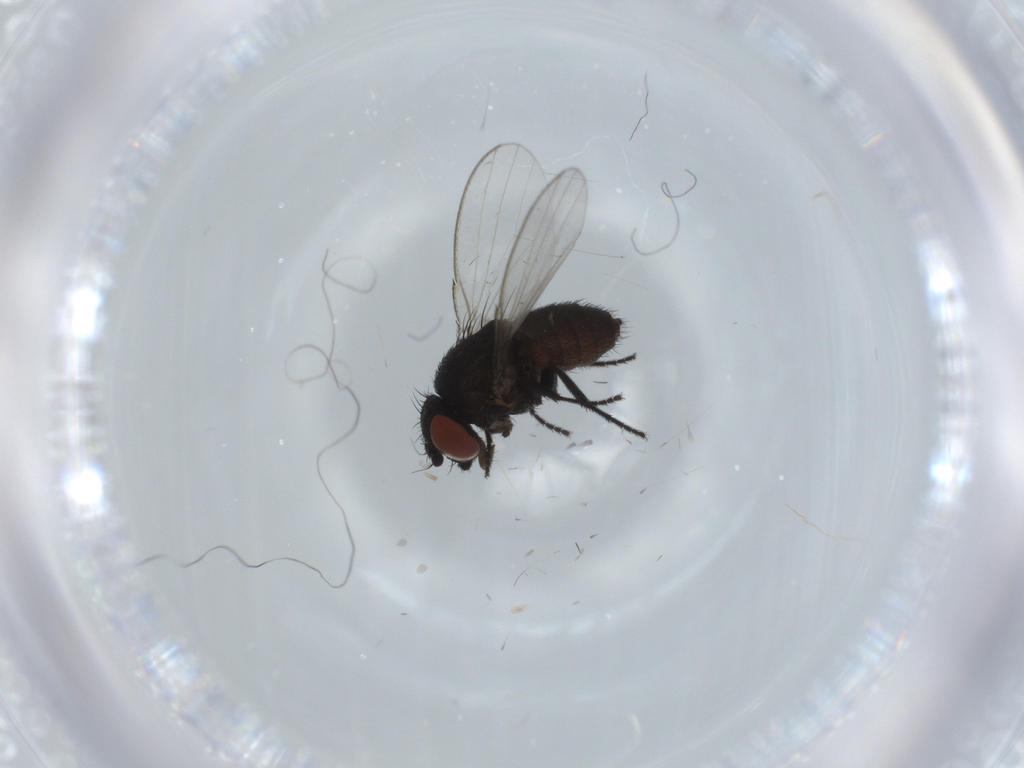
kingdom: Animalia
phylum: Arthropoda
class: Insecta
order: Diptera
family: Milichiidae
